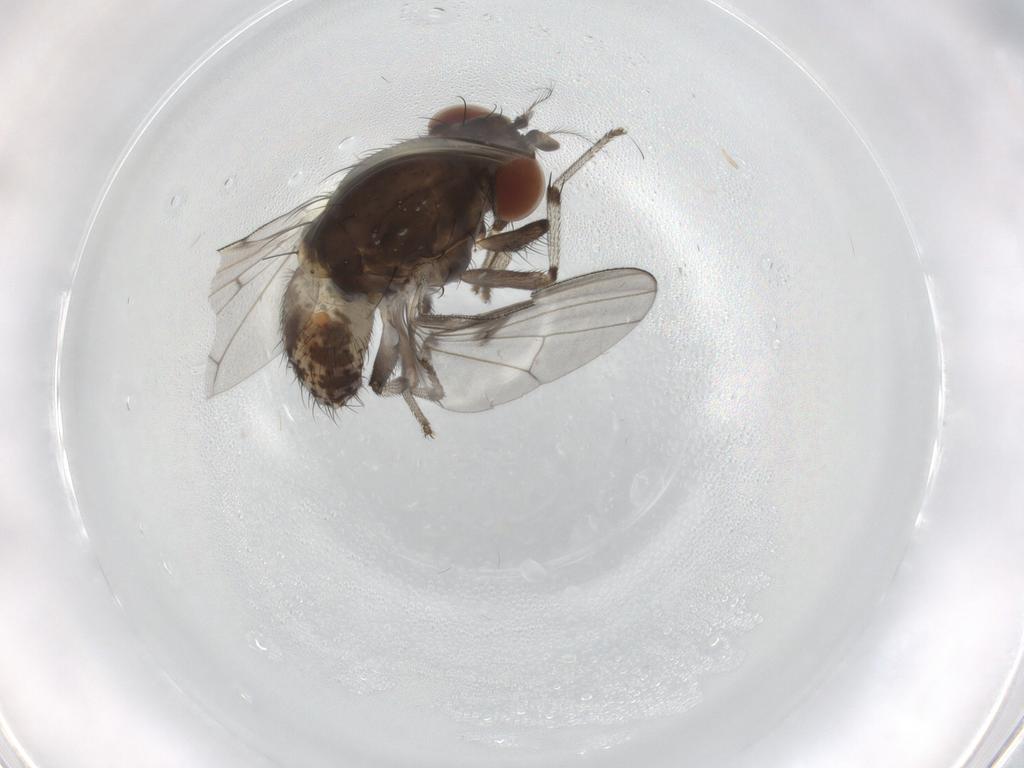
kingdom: Animalia
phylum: Arthropoda
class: Insecta
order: Diptera
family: Lauxaniidae
